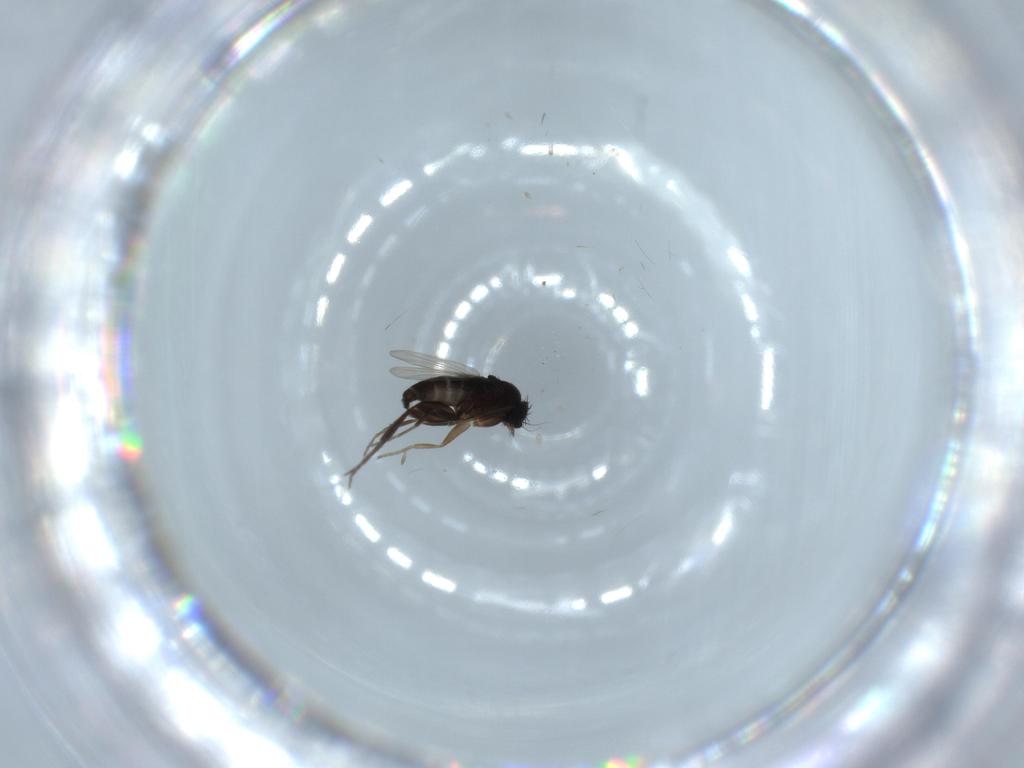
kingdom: Animalia
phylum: Arthropoda
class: Insecta
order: Diptera
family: Phoridae
